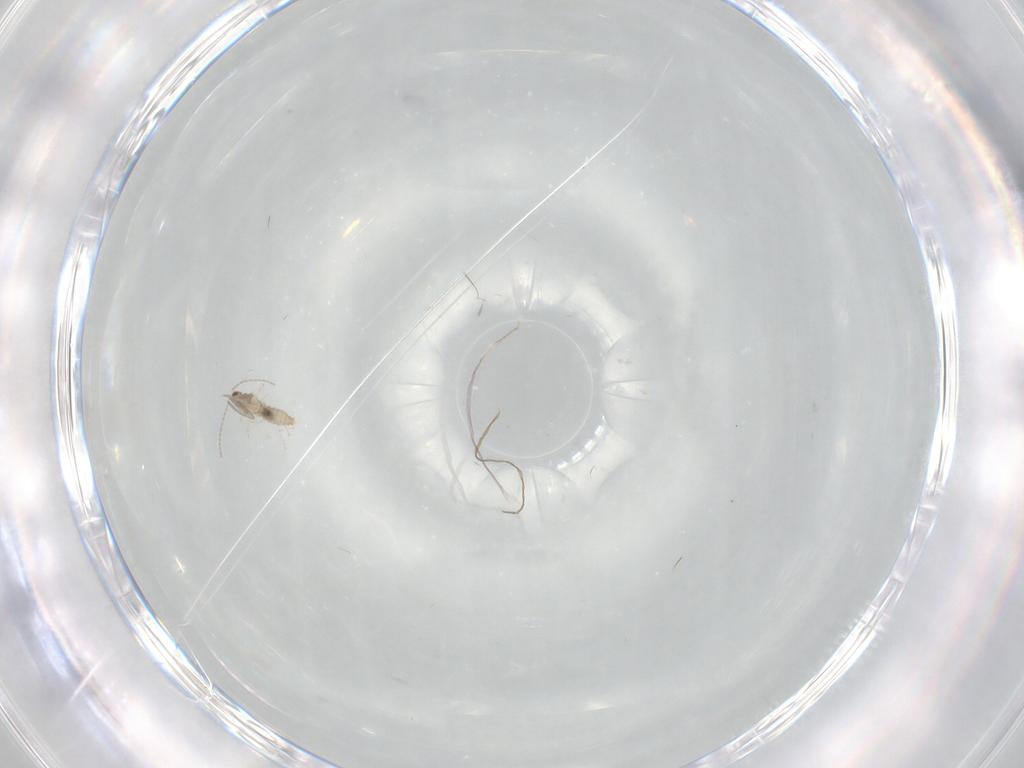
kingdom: Animalia
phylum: Arthropoda
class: Insecta
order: Diptera
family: Cecidomyiidae
